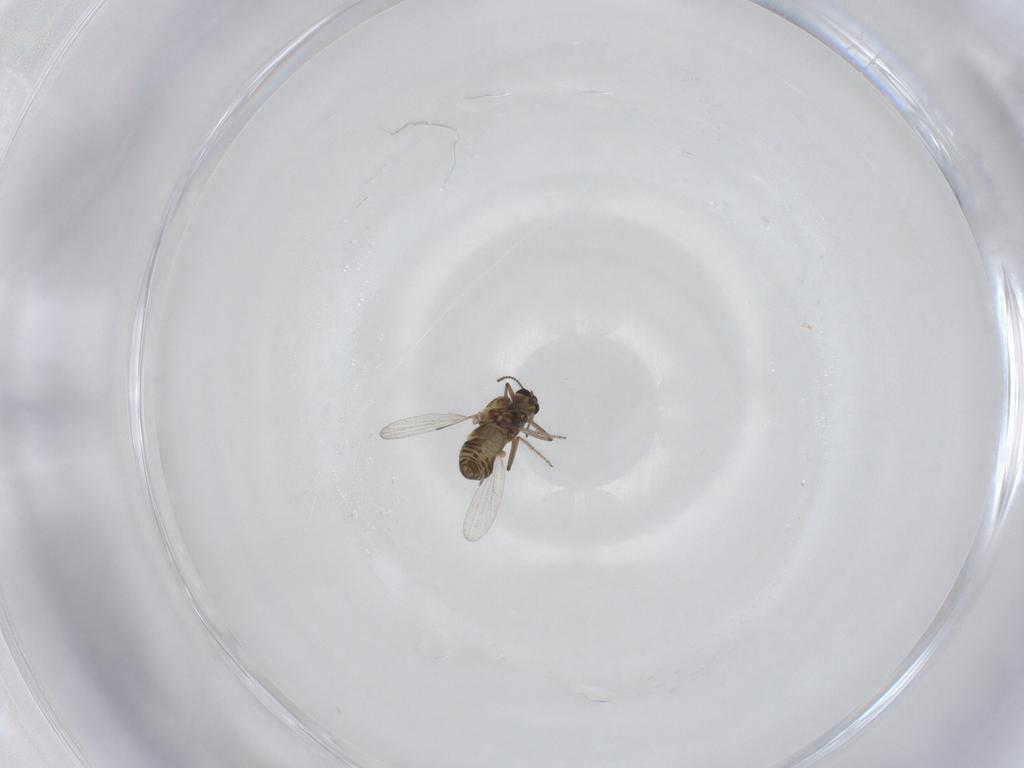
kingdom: Animalia
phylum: Arthropoda
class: Insecta
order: Diptera
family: Ceratopogonidae
